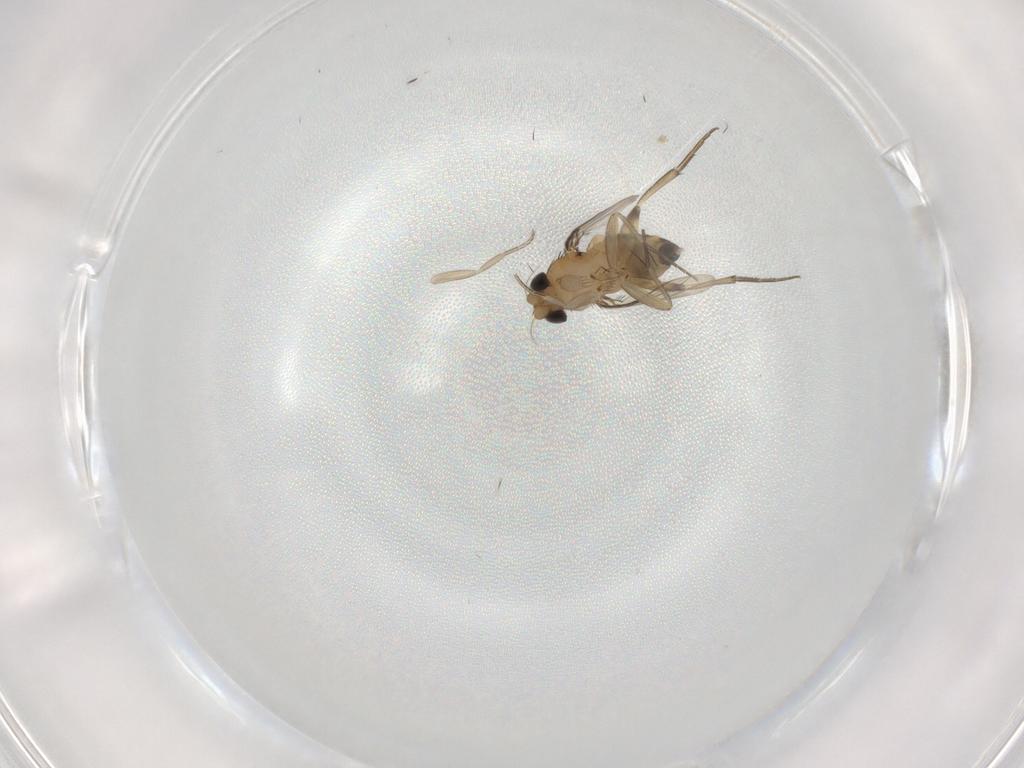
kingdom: Animalia
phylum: Arthropoda
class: Insecta
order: Diptera
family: Phoridae
